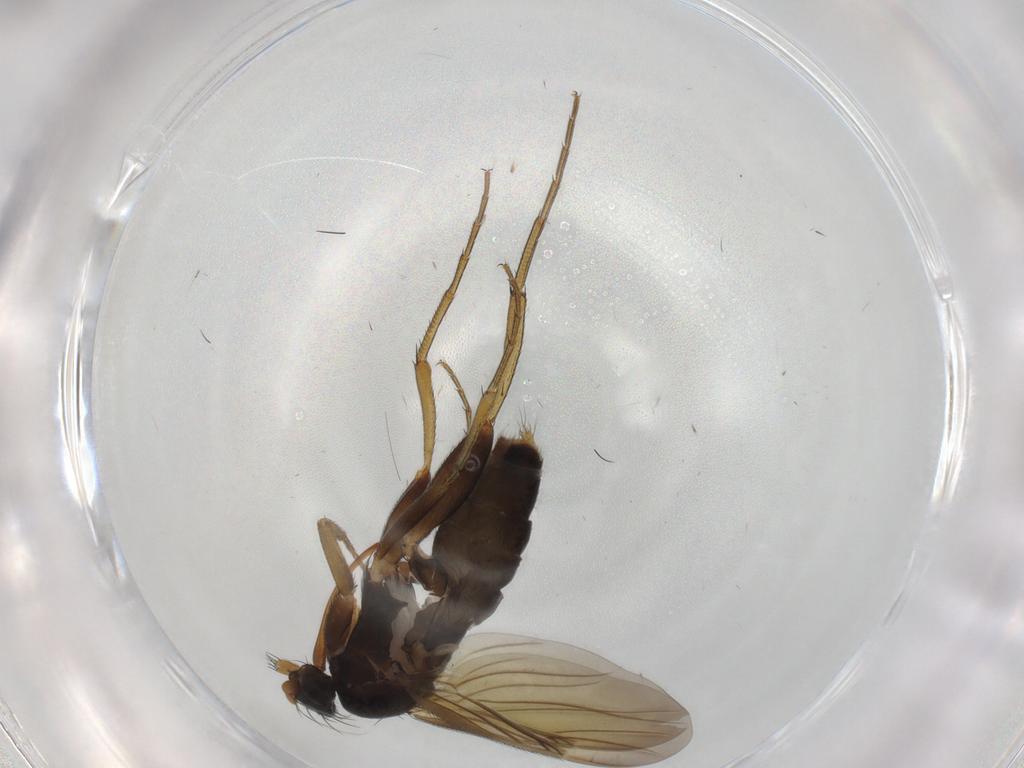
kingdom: Animalia
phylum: Arthropoda
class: Insecta
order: Diptera
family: Phoridae
